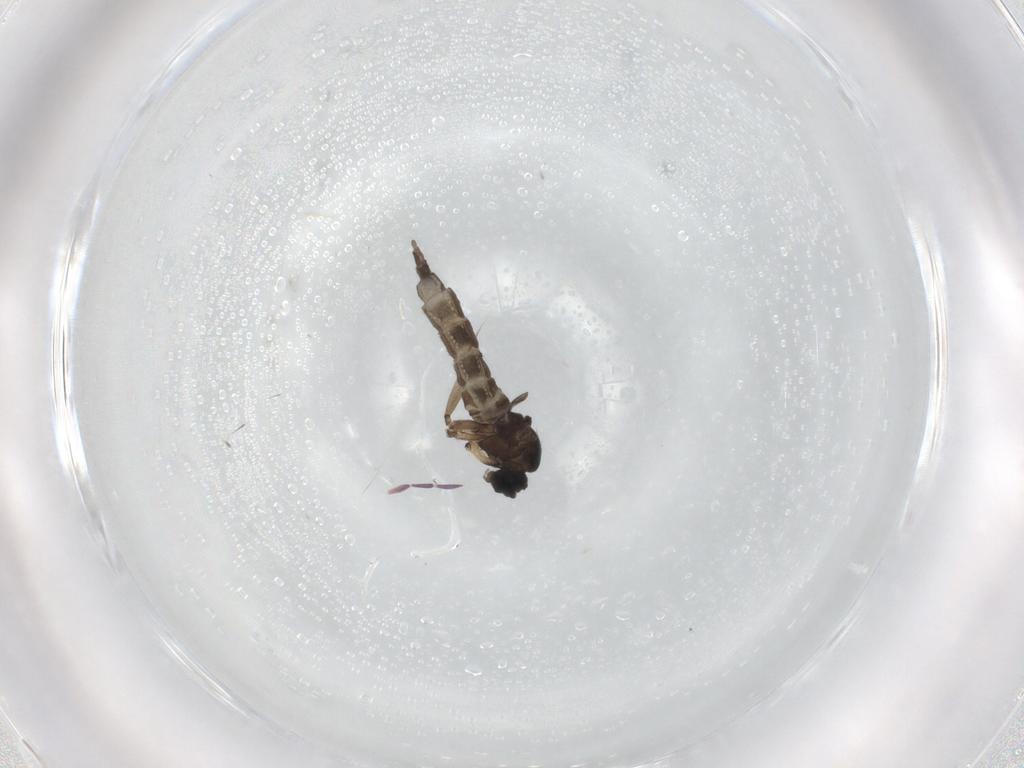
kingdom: Animalia
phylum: Arthropoda
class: Insecta
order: Diptera
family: Sciaridae
